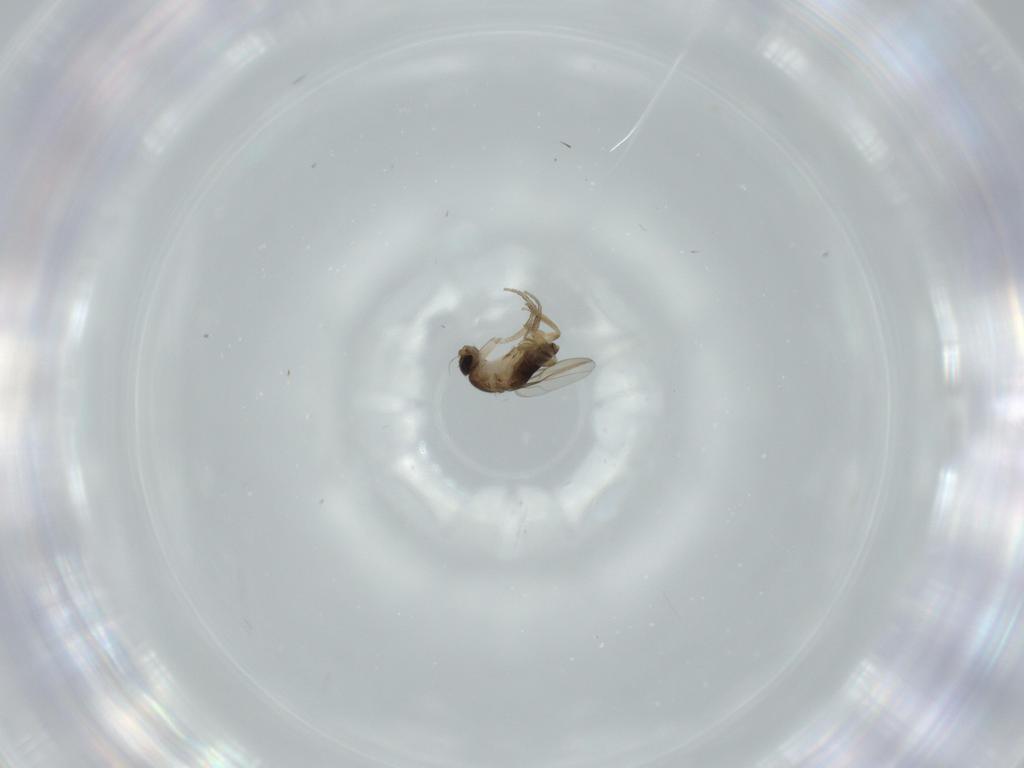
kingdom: Animalia
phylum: Arthropoda
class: Insecta
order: Diptera
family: Phoridae
